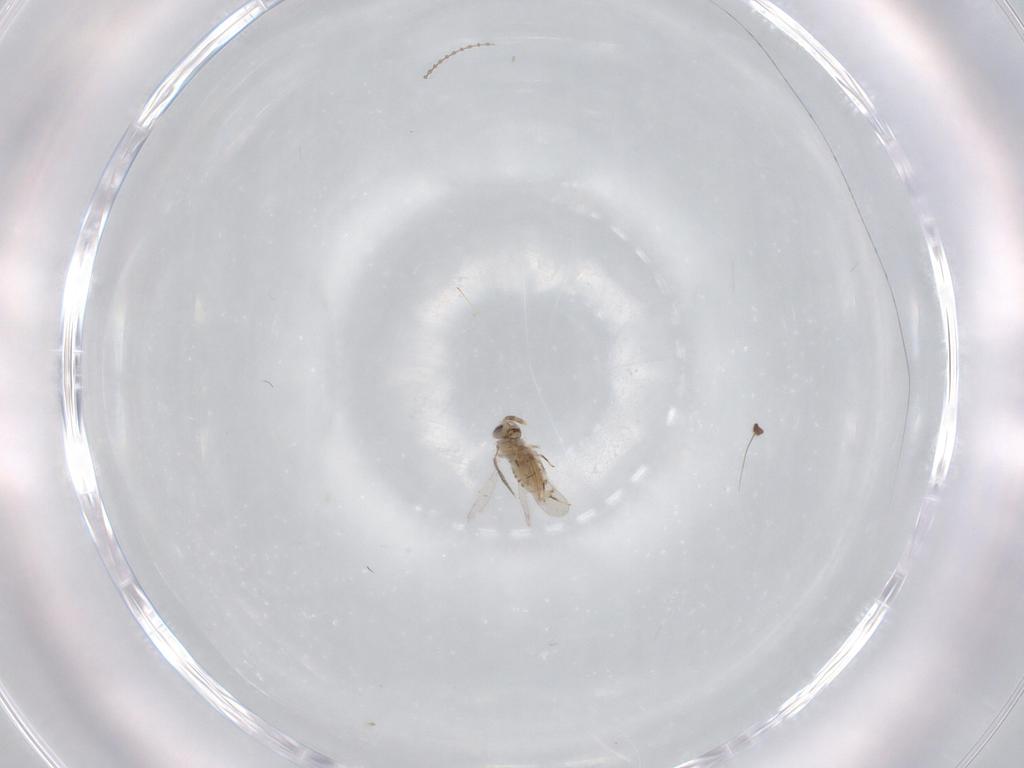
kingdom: Animalia
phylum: Arthropoda
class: Insecta
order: Hymenoptera
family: Aphelinidae
